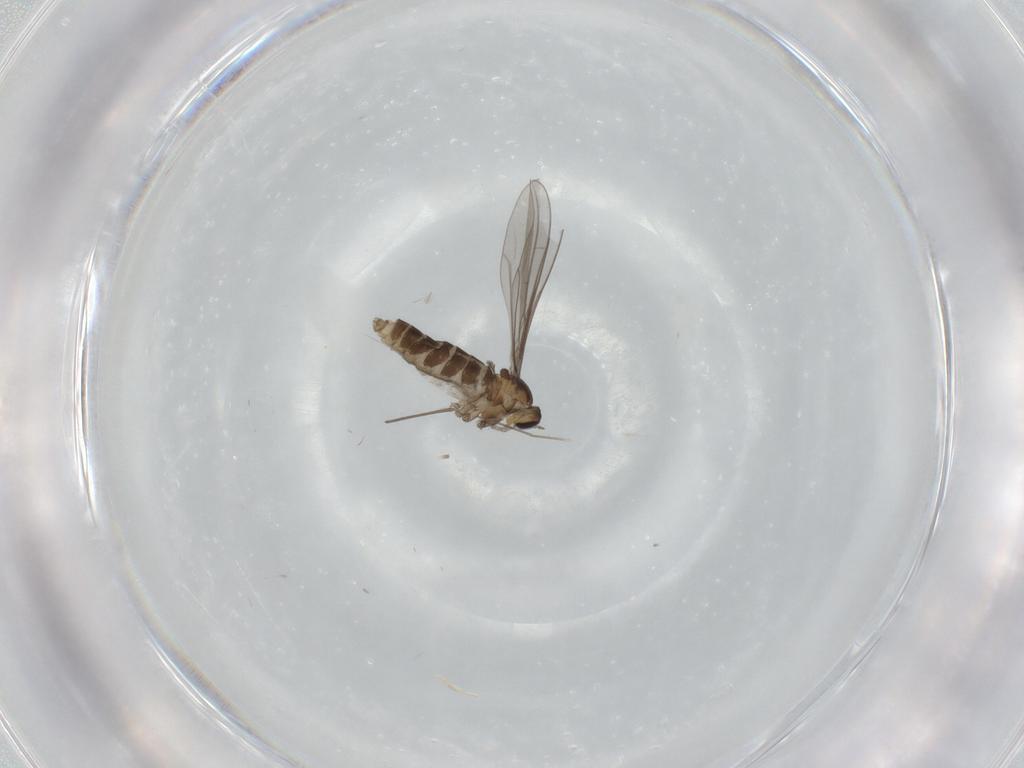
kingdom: Animalia
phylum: Arthropoda
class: Insecta
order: Diptera
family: Cecidomyiidae
